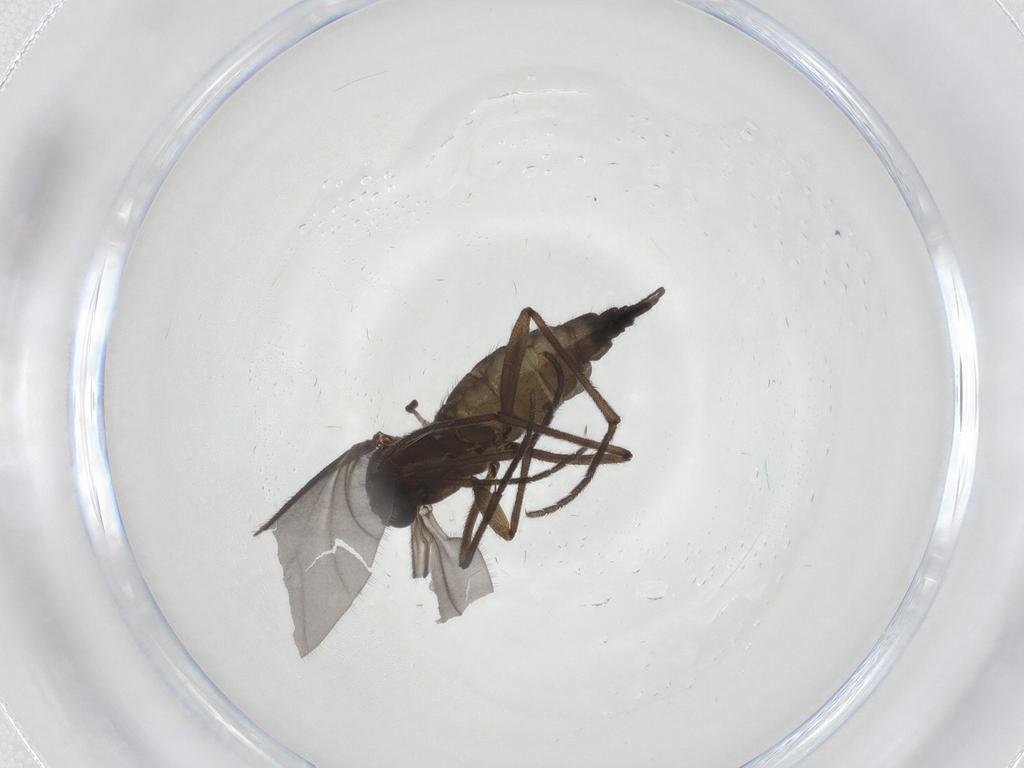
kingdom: Animalia
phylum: Arthropoda
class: Insecta
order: Diptera
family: Sciaridae
